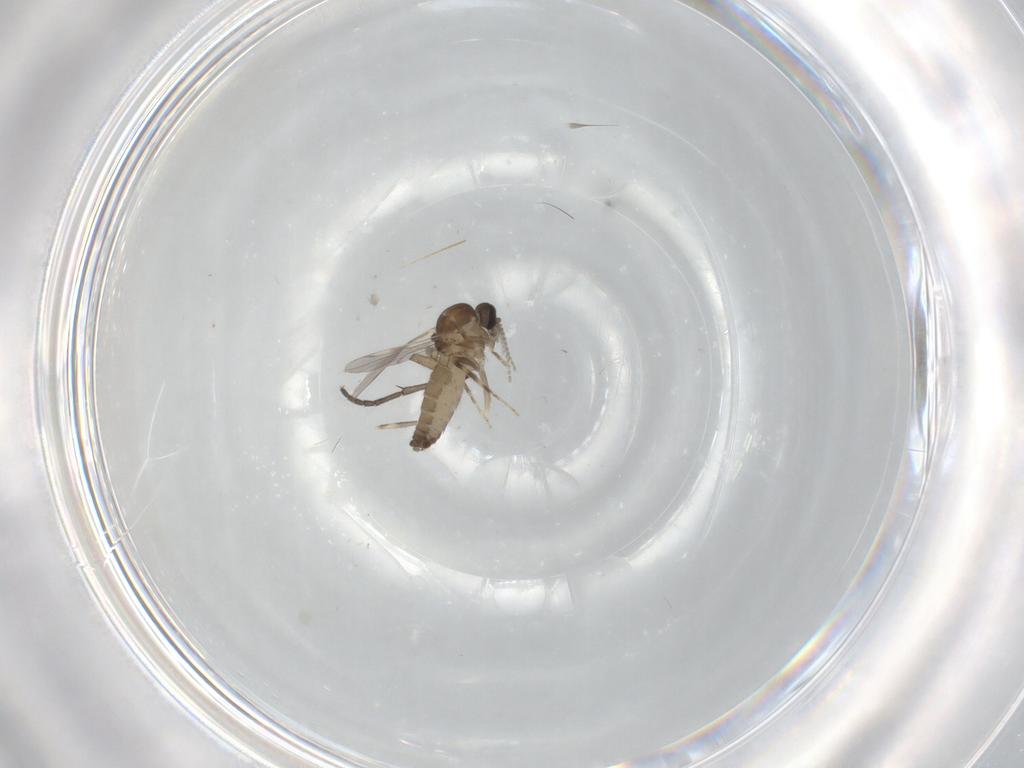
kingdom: Animalia
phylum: Arthropoda
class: Insecta
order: Diptera
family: Ceratopogonidae
